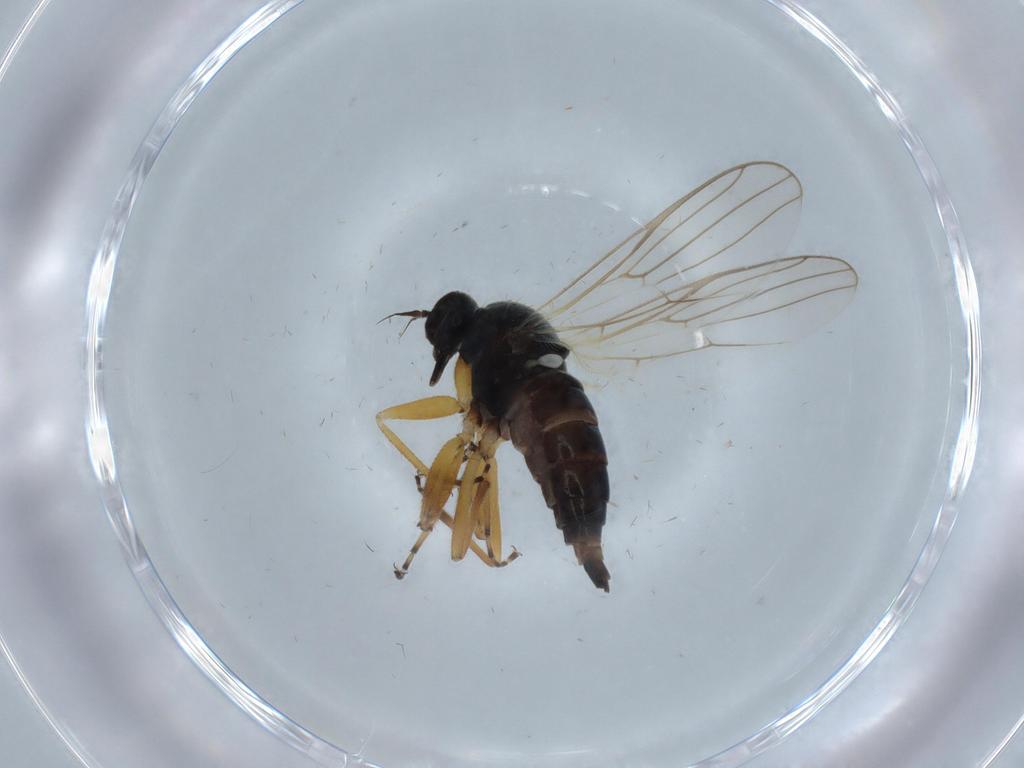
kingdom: Animalia
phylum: Arthropoda
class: Insecta
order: Diptera
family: Hybotidae
